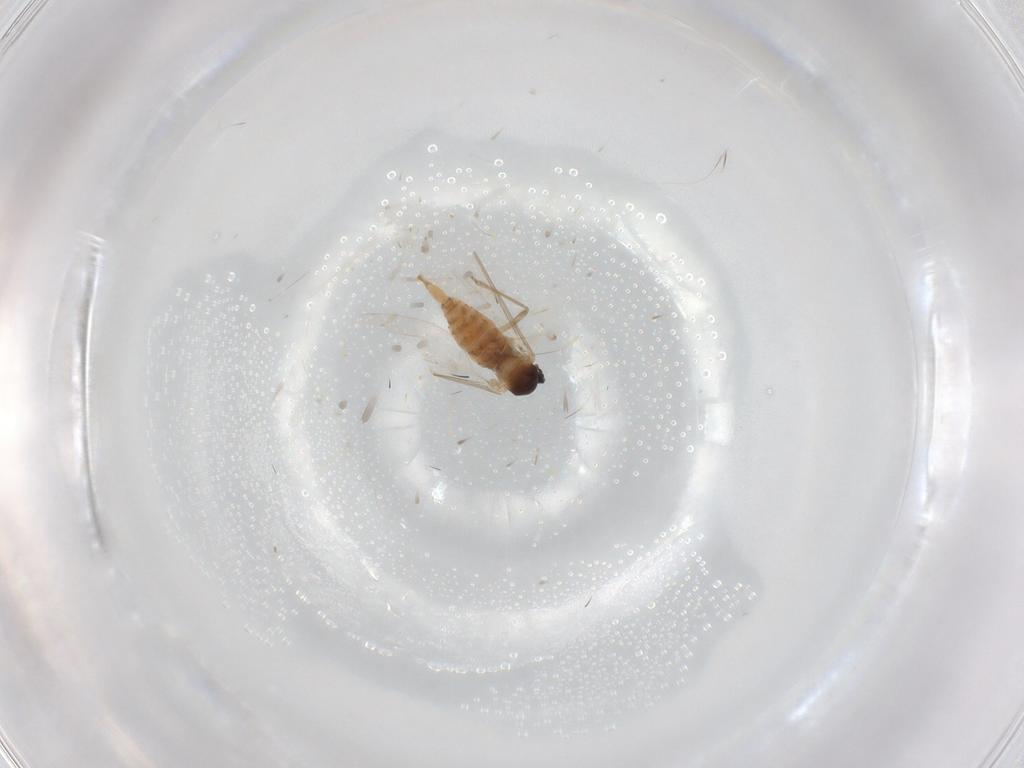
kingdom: Animalia
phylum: Arthropoda
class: Insecta
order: Diptera
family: Cecidomyiidae
